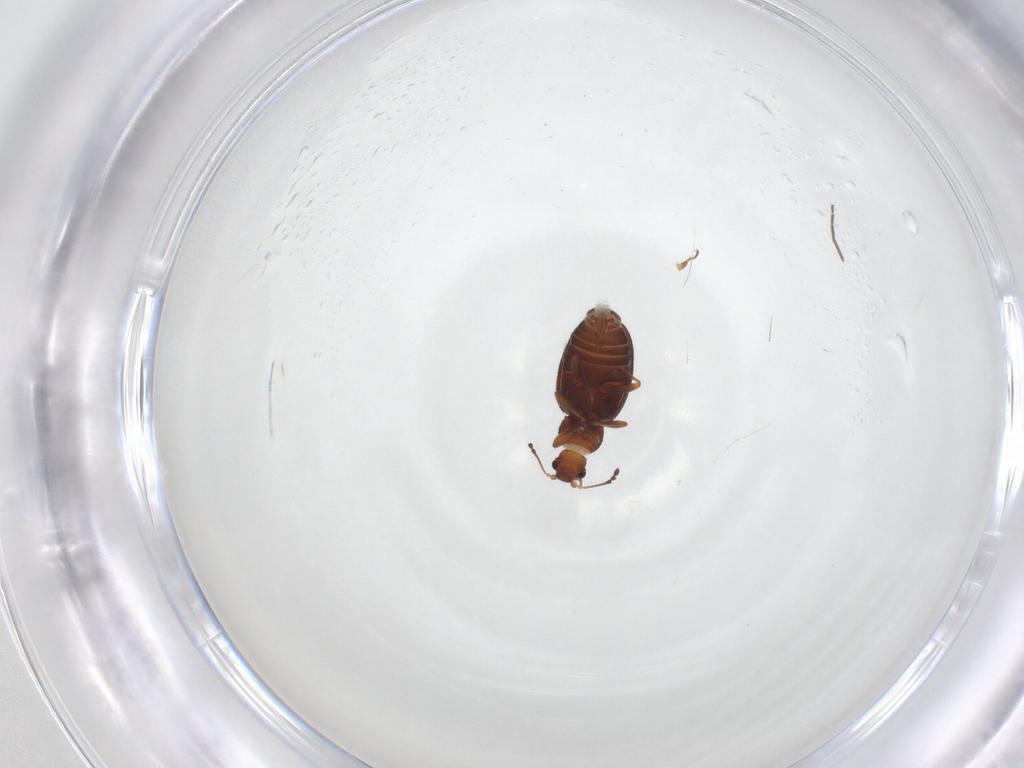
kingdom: Animalia
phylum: Arthropoda
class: Insecta
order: Coleoptera
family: Latridiidae
